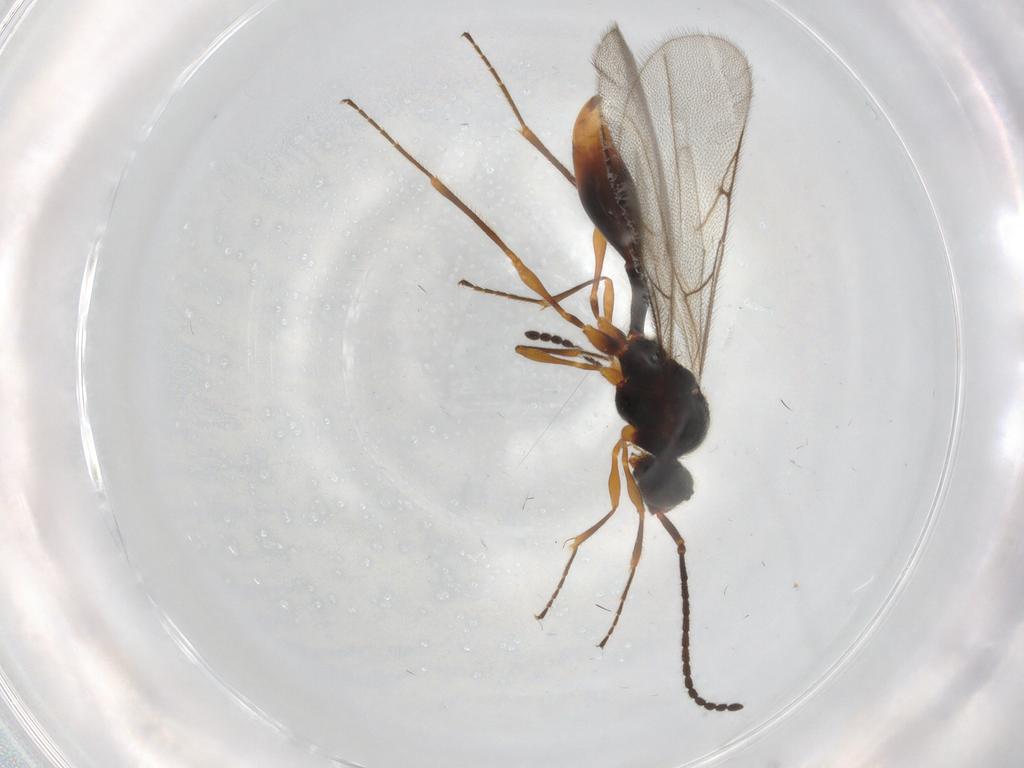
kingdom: Animalia
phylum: Arthropoda
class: Insecta
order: Hymenoptera
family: Diapriidae
